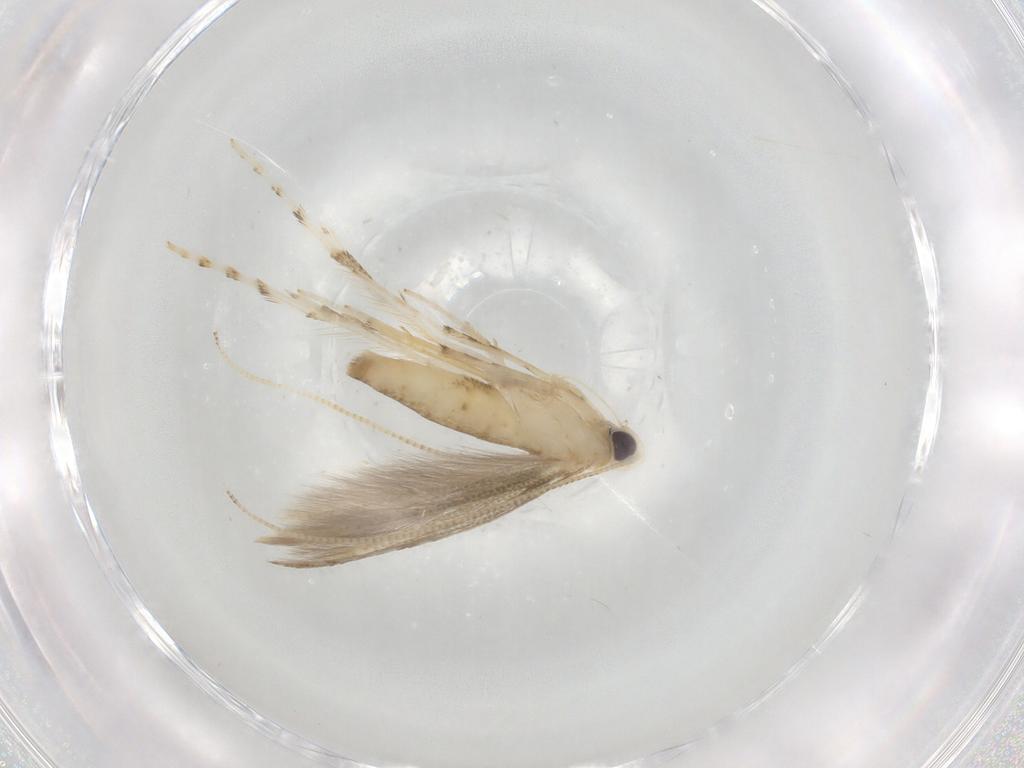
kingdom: Animalia
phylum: Arthropoda
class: Insecta
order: Lepidoptera
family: Gracillariidae
